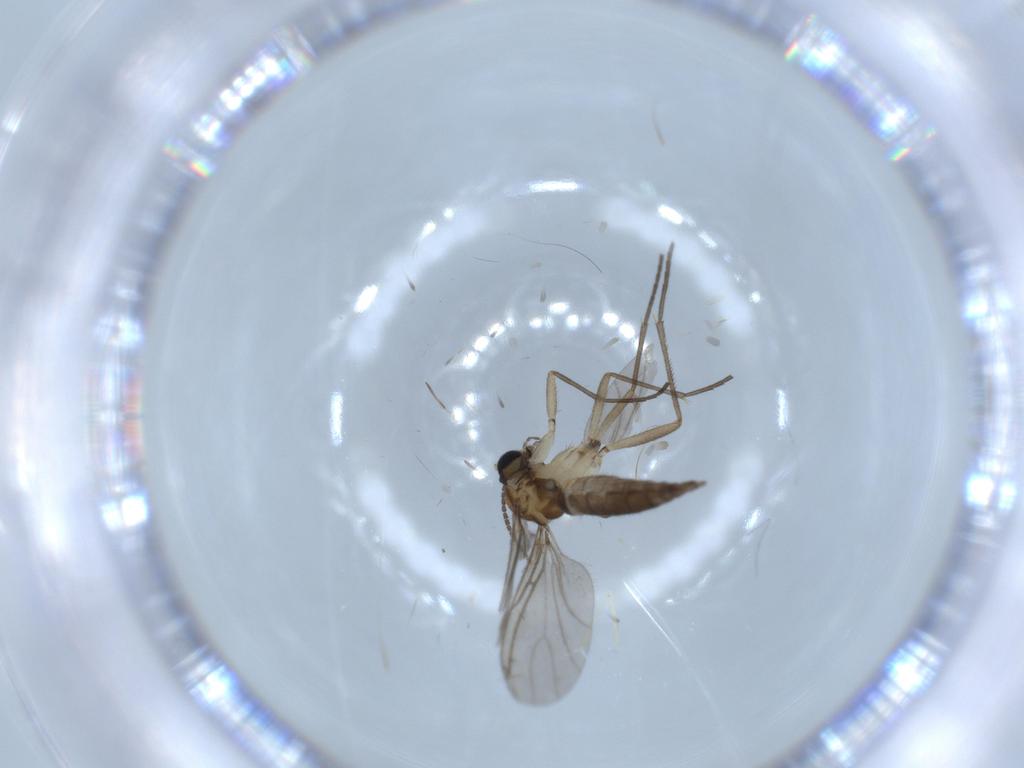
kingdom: Animalia
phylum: Arthropoda
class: Insecta
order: Diptera
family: Sciaridae
